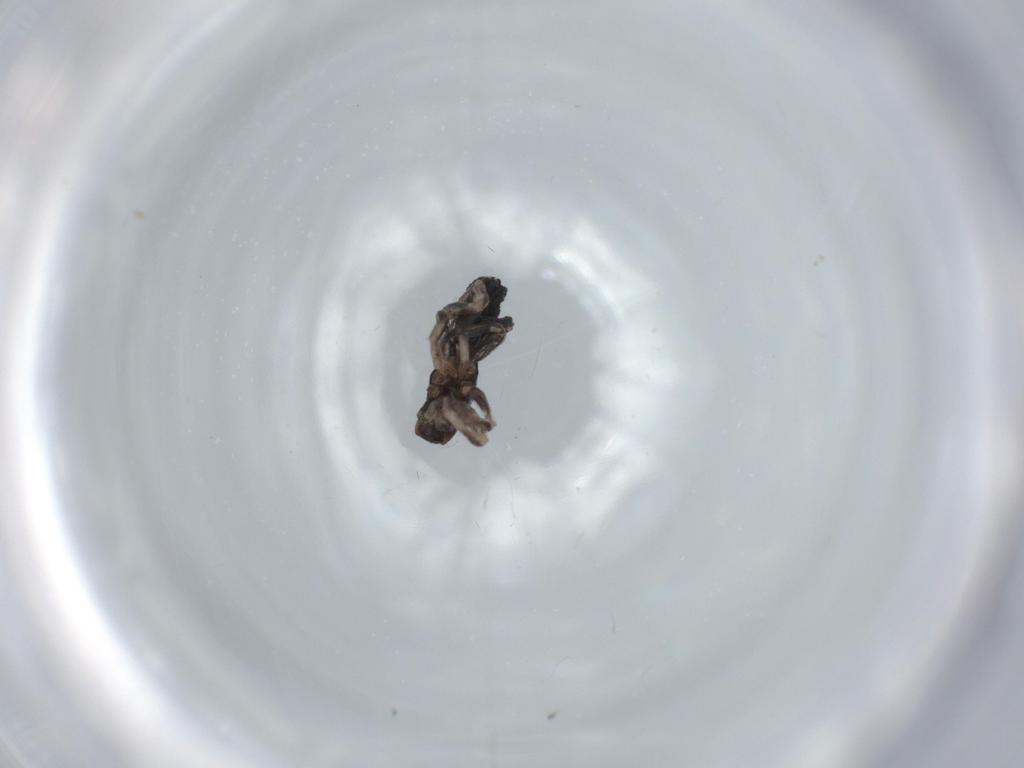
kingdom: Animalia
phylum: Arthropoda
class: Arachnida
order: Araneae
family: Corinnidae
